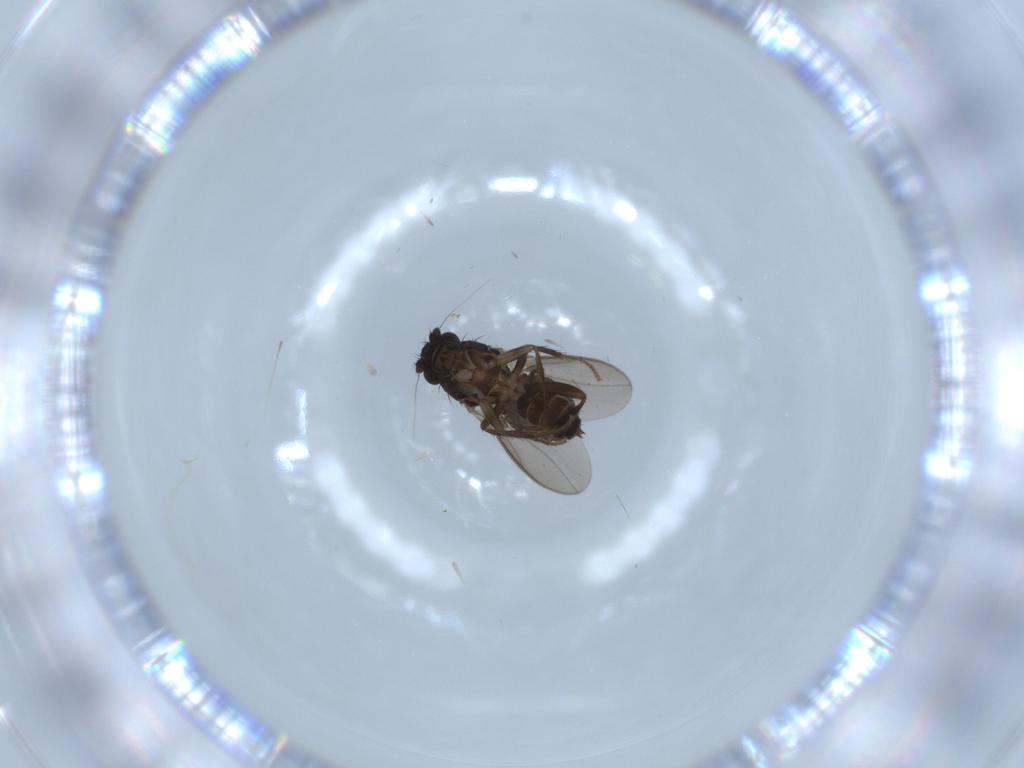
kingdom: Animalia
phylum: Arthropoda
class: Insecta
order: Diptera
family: Sphaeroceridae
